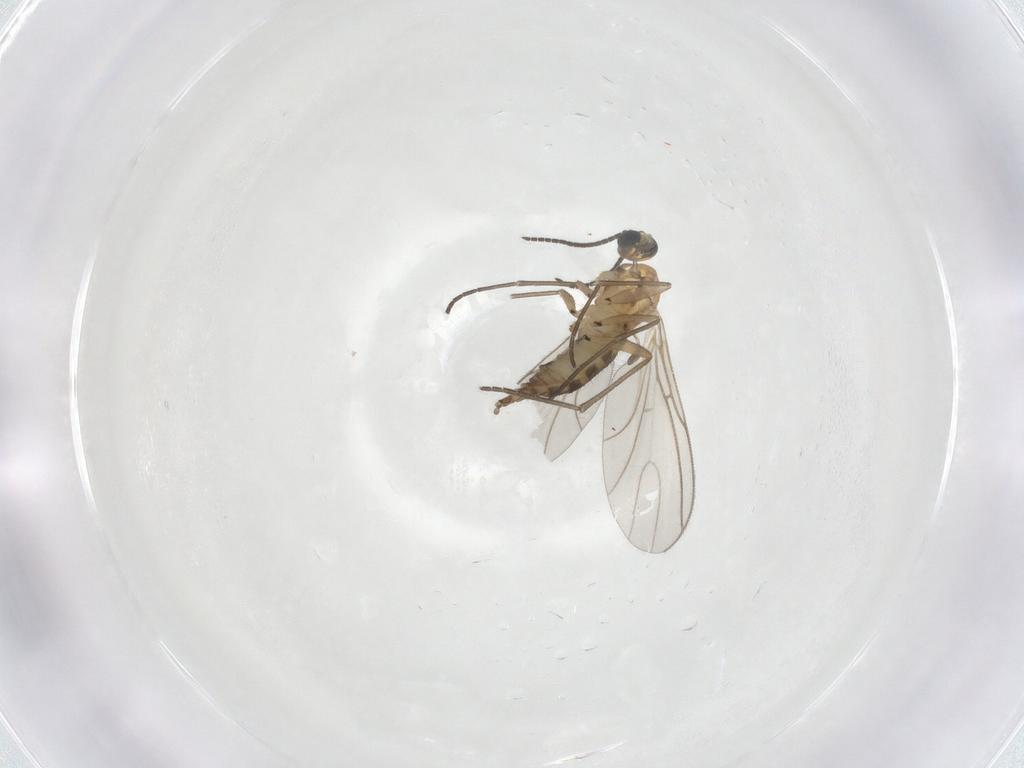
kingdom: Animalia
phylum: Arthropoda
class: Insecta
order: Diptera
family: Sciaridae
